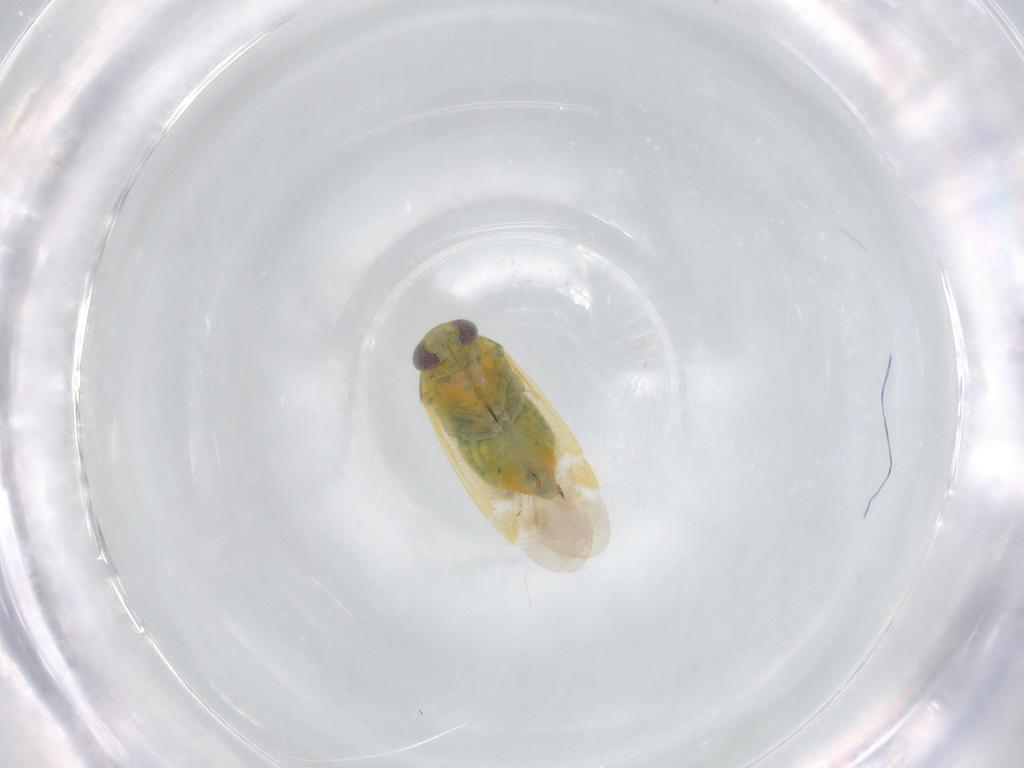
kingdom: Animalia
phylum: Arthropoda
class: Insecta
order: Hemiptera
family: Miridae
